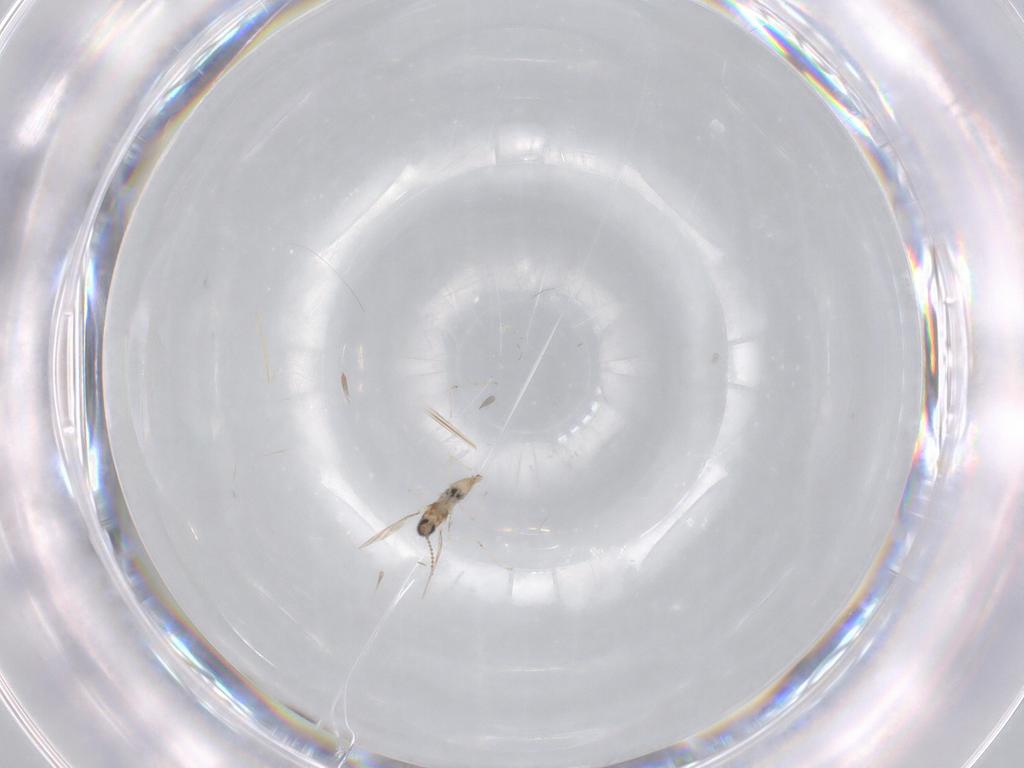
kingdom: Animalia
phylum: Arthropoda
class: Insecta
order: Diptera
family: Cecidomyiidae
